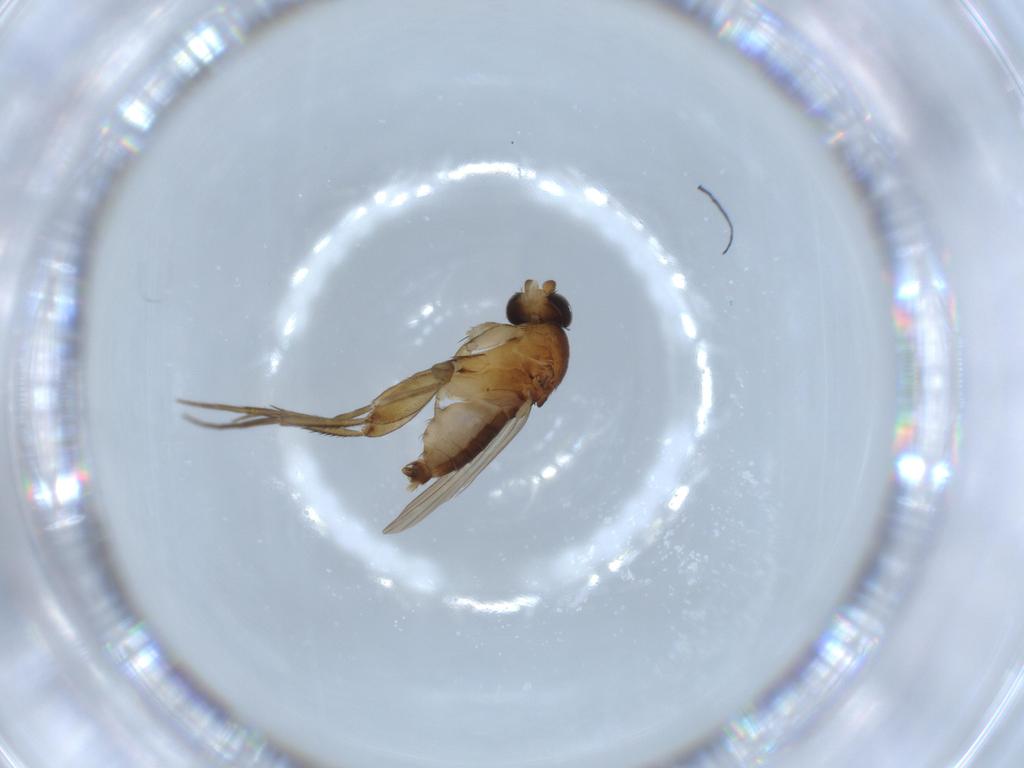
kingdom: Animalia
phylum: Arthropoda
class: Insecta
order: Diptera
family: Phoridae
